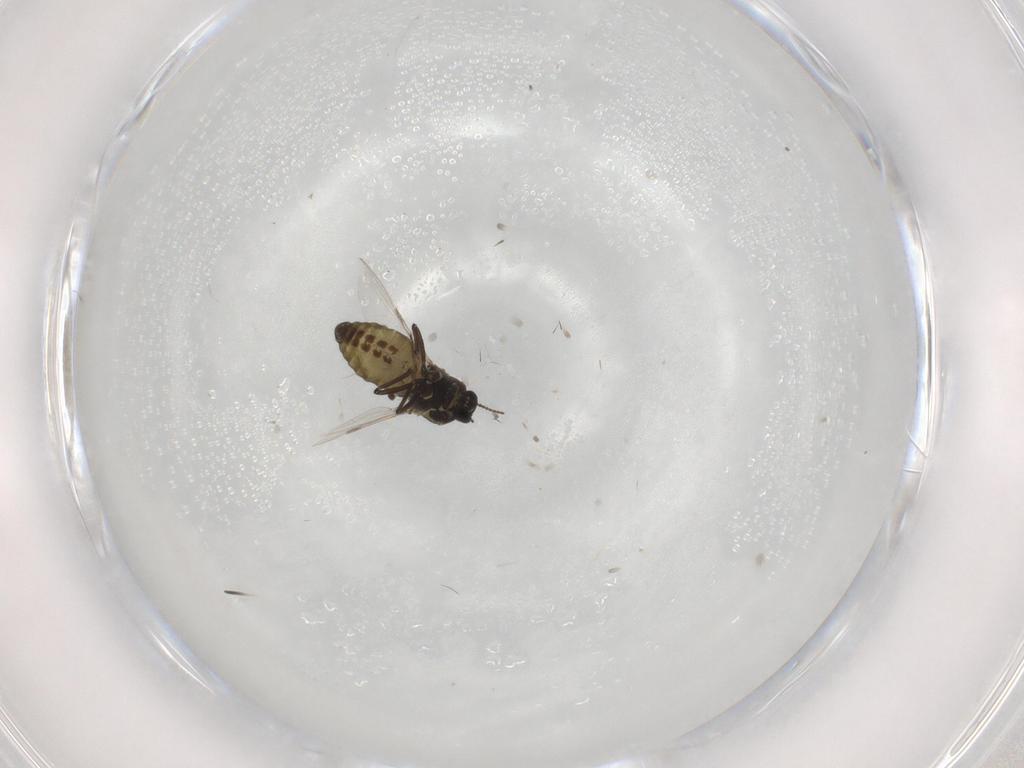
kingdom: Animalia
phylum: Arthropoda
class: Insecta
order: Diptera
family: Ceratopogonidae
